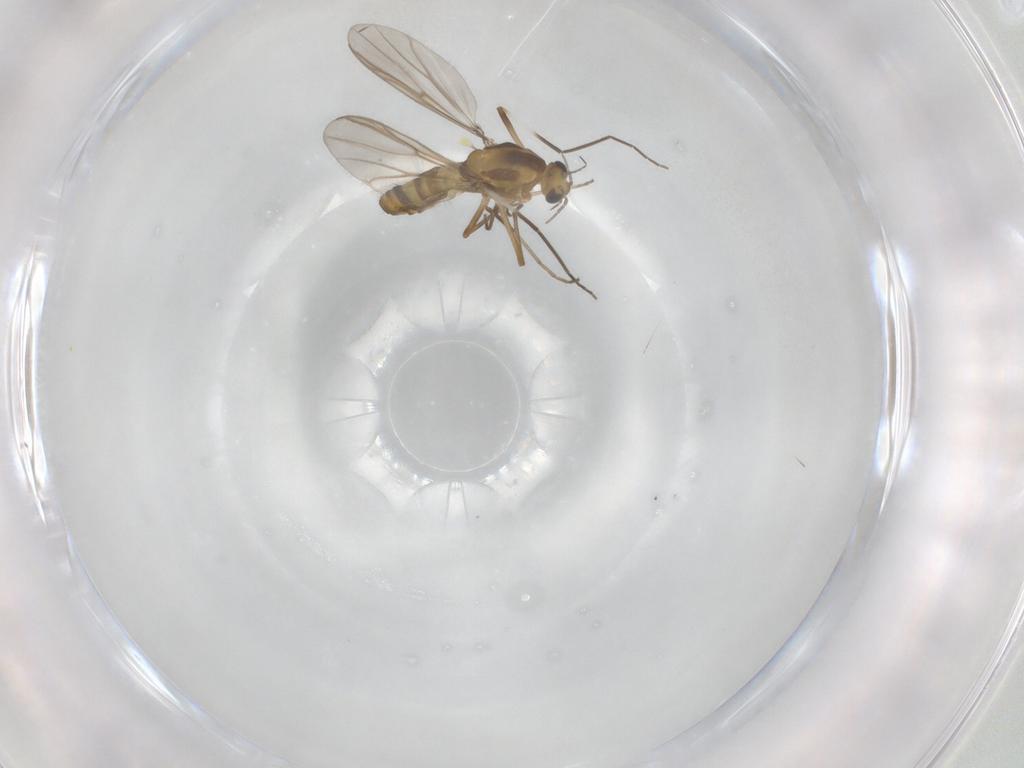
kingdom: Animalia
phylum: Arthropoda
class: Insecta
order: Diptera
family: Chironomidae
